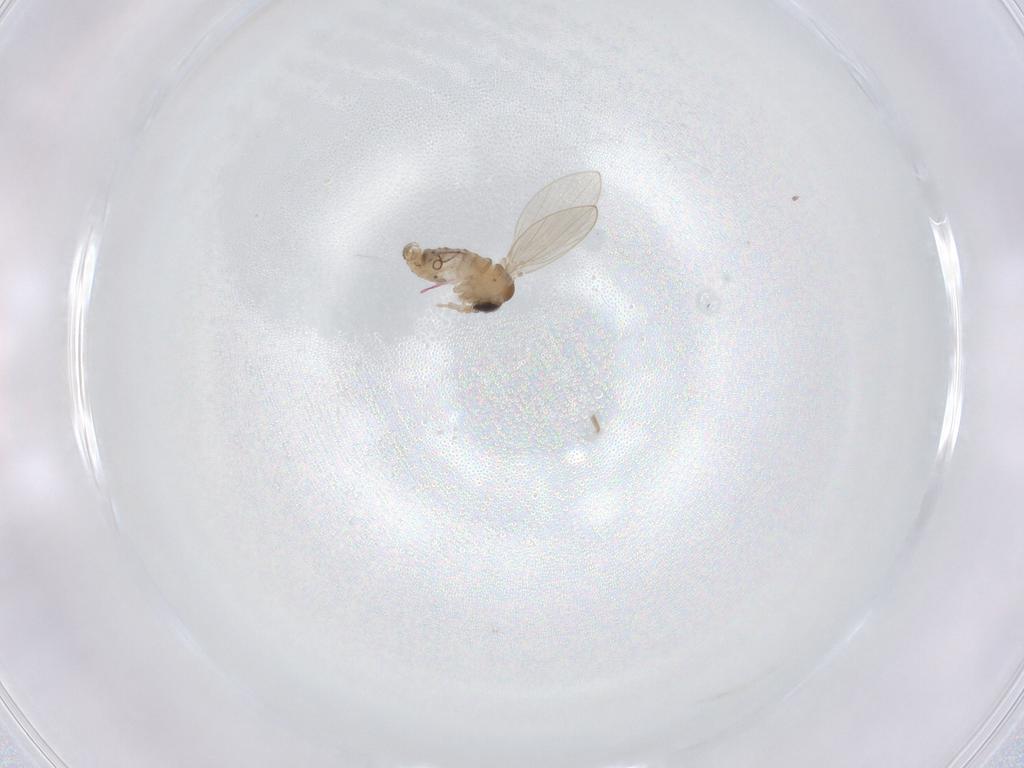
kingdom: Animalia
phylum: Arthropoda
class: Insecta
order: Diptera
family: Psychodidae
